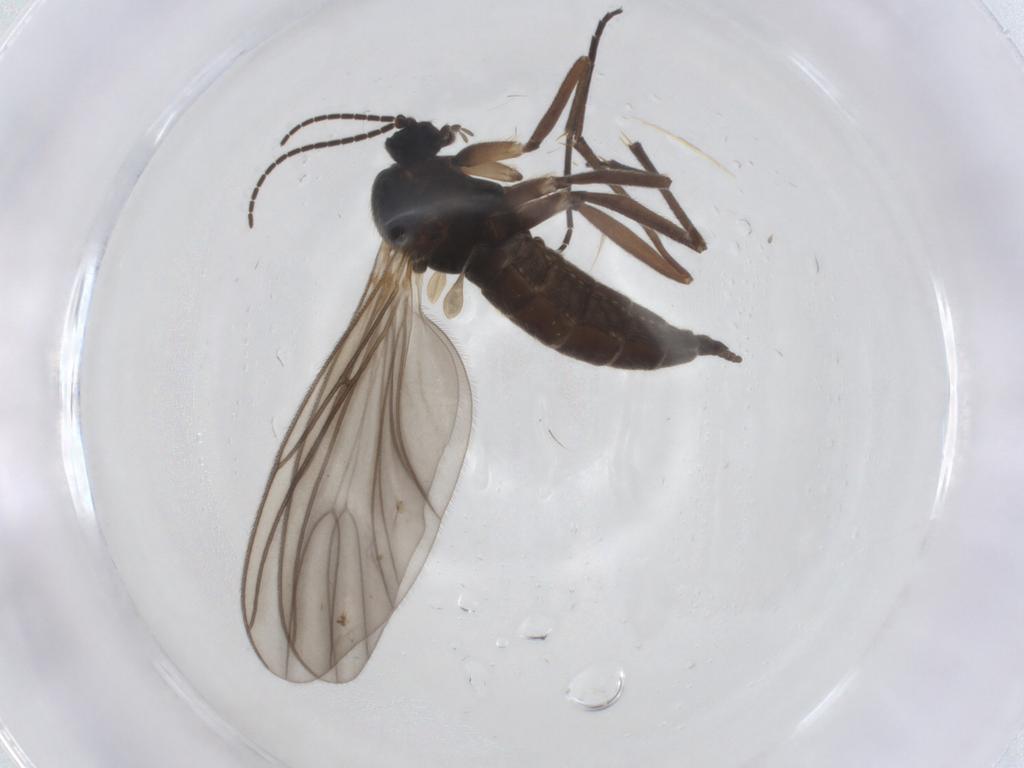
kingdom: Animalia
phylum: Arthropoda
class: Insecta
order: Diptera
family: Sciaridae
